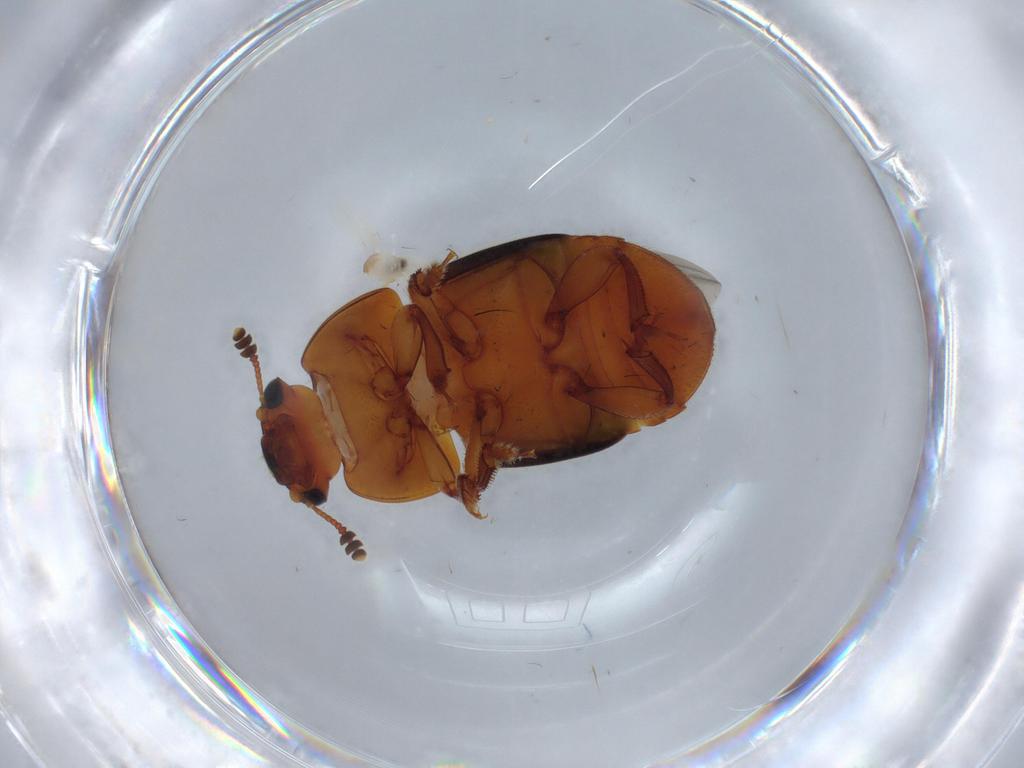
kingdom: Animalia
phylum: Arthropoda
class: Insecta
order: Coleoptera
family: Nitidulidae
